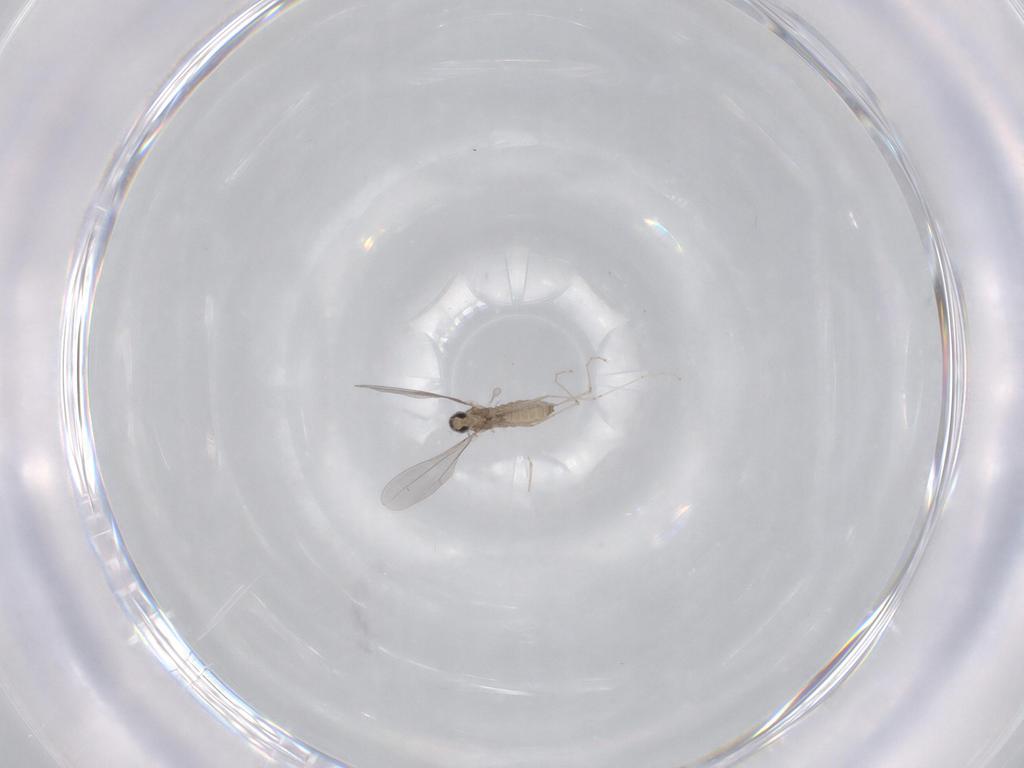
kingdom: Animalia
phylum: Arthropoda
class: Insecta
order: Diptera
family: Cecidomyiidae
